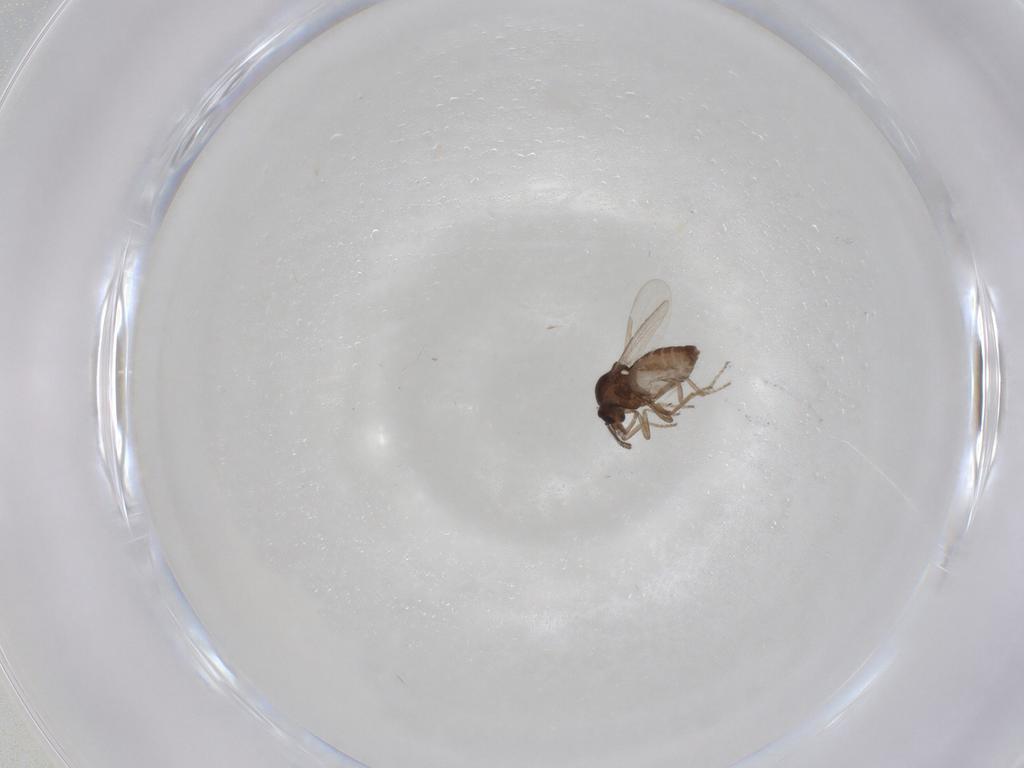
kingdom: Animalia
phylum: Arthropoda
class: Insecta
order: Diptera
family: Ceratopogonidae
